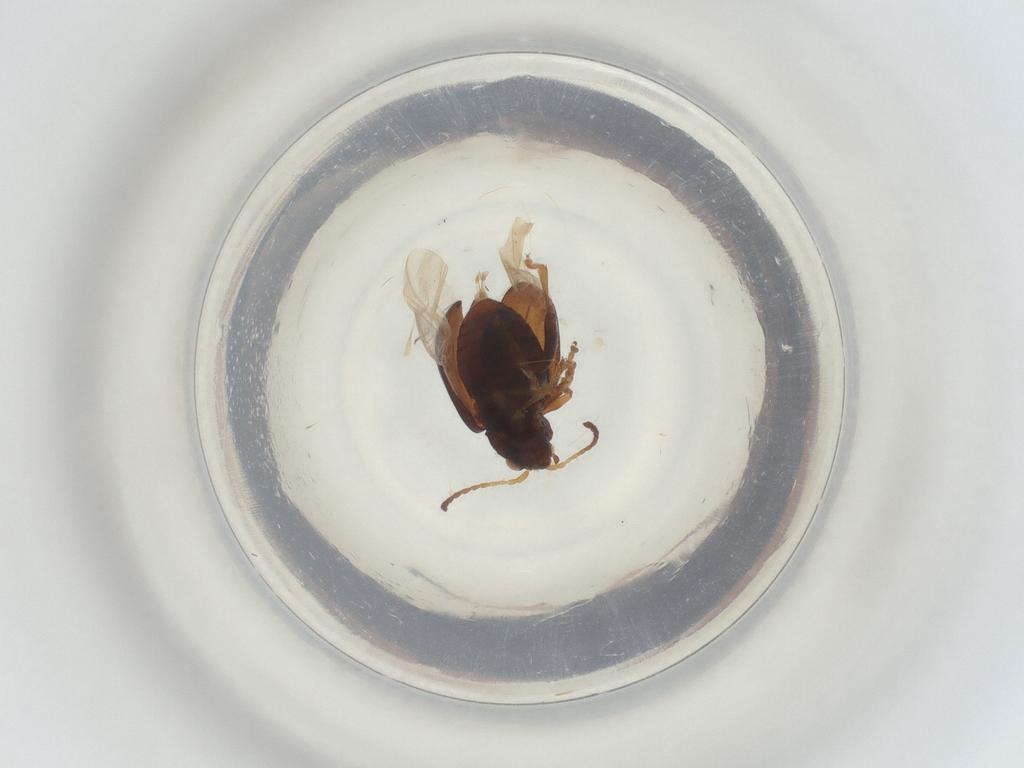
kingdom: Animalia
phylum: Arthropoda
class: Insecta
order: Coleoptera
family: Chrysomelidae
